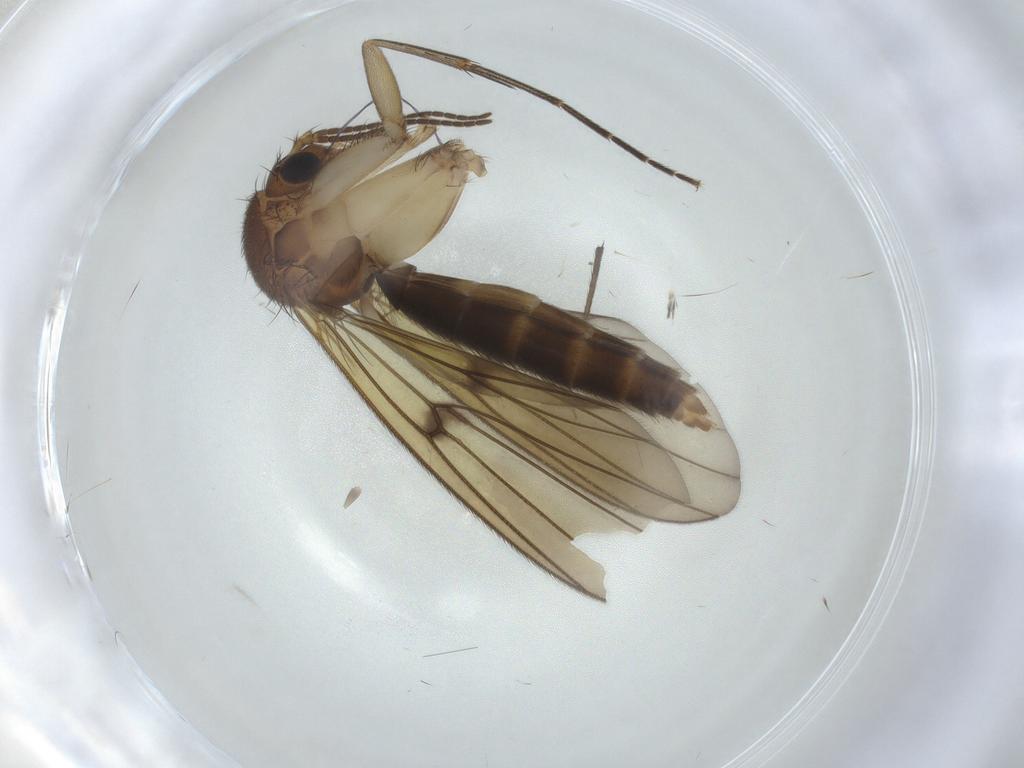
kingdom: Animalia
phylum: Arthropoda
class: Insecta
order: Diptera
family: Mycetophilidae
